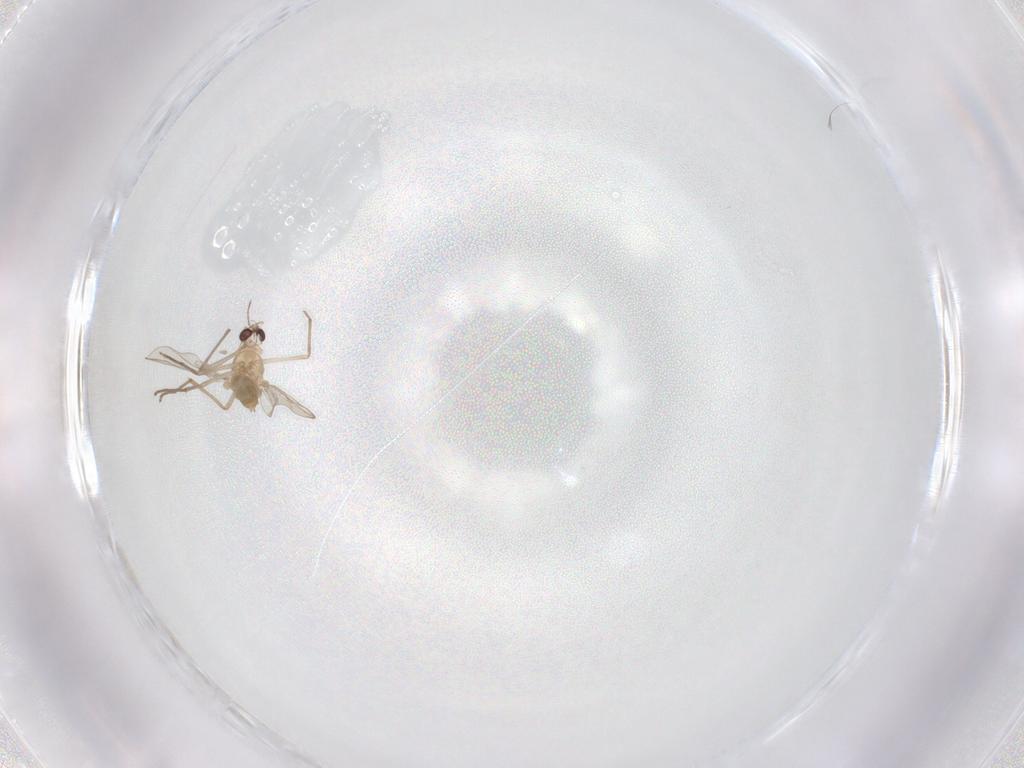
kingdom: Animalia
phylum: Arthropoda
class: Insecta
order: Diptera
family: Chironomidae
